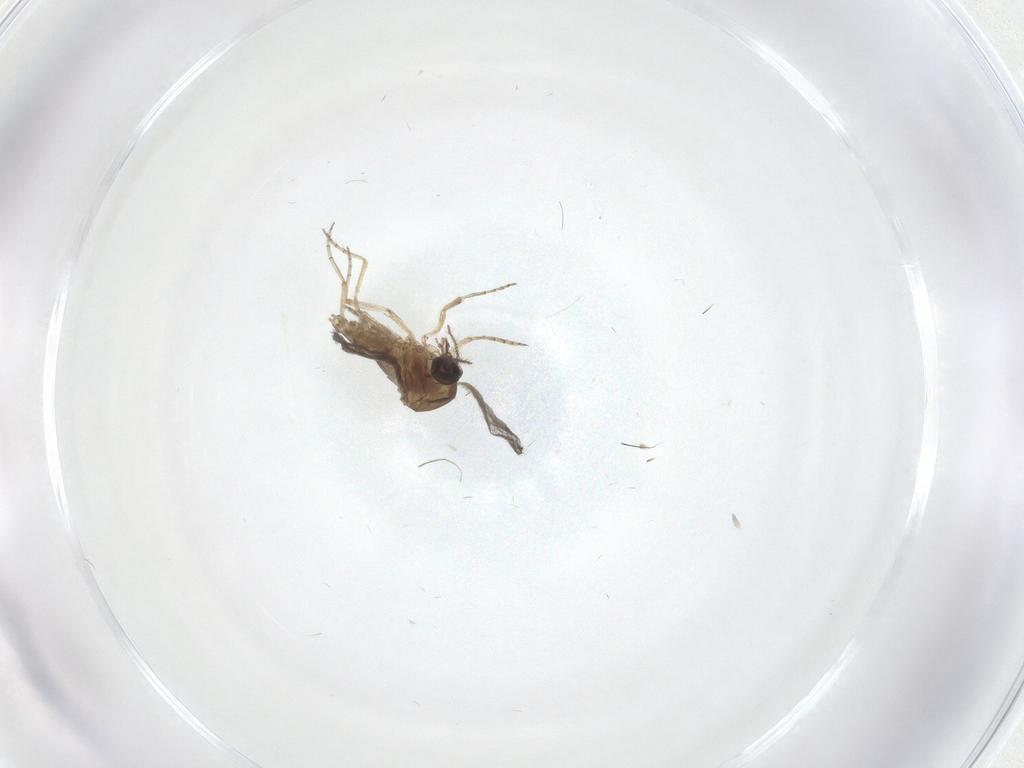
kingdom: Animalia
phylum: Arthropoda
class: Insecta
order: Diptera
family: Ceratopogonidae
